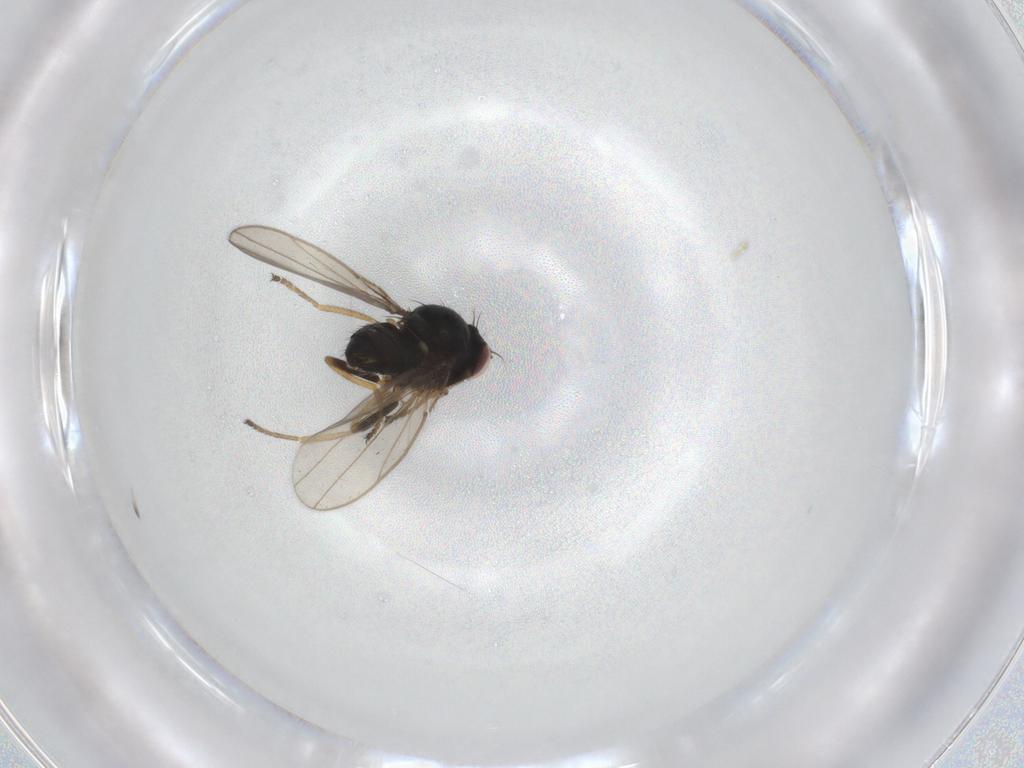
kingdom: Animalia
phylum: Arthropoda
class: Insecta
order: Diptera
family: Ephydridae
